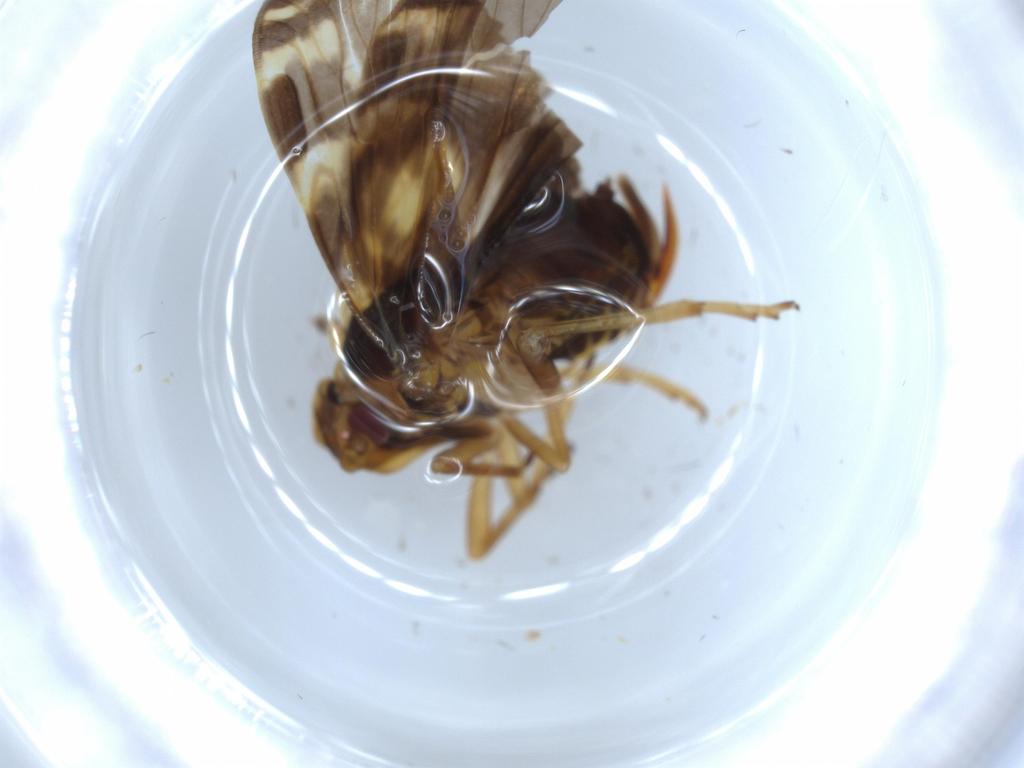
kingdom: Animalia
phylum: Arthropoda
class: Insecta
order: Hemiptera
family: Cixiidae
